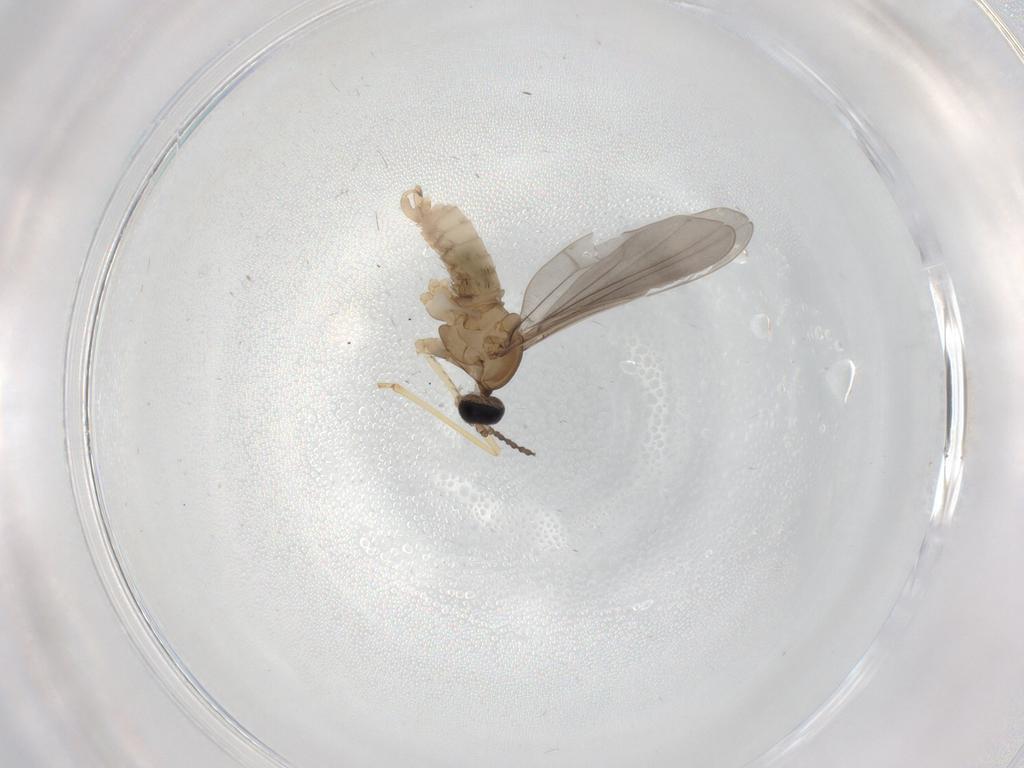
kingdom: Animalia
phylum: Arthropoda
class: Insecta
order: Diptera
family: Cecidomyiidae
